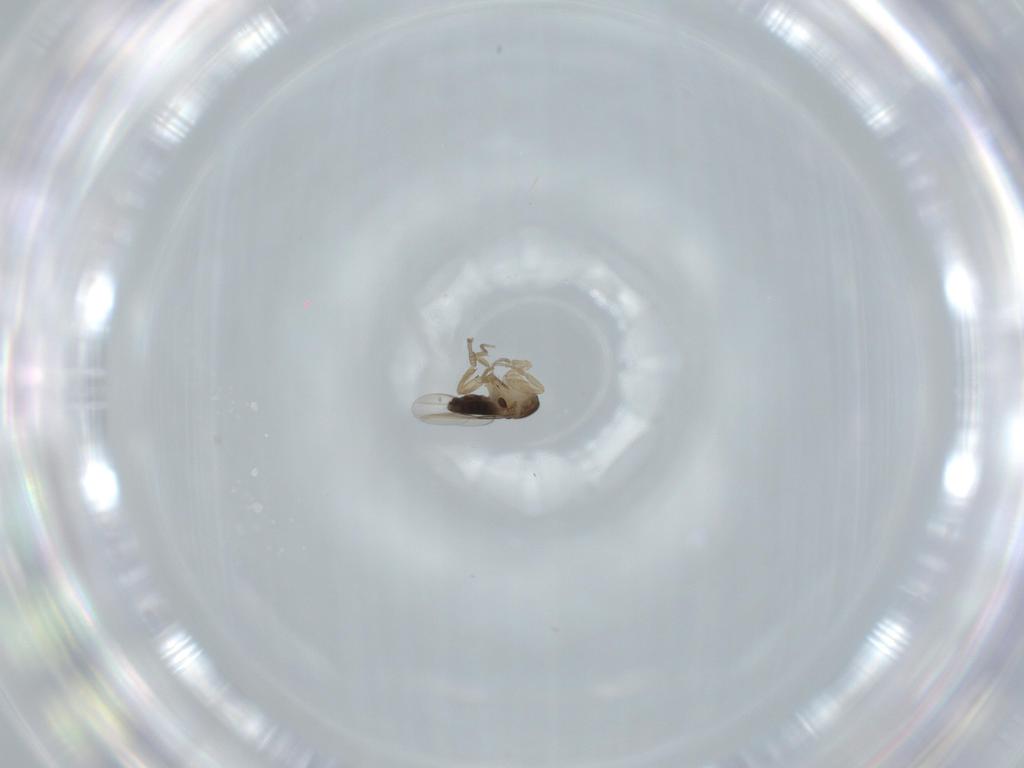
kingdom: Animalia
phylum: Arthropoda
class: Insecta
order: Diptera
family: Phoridae
